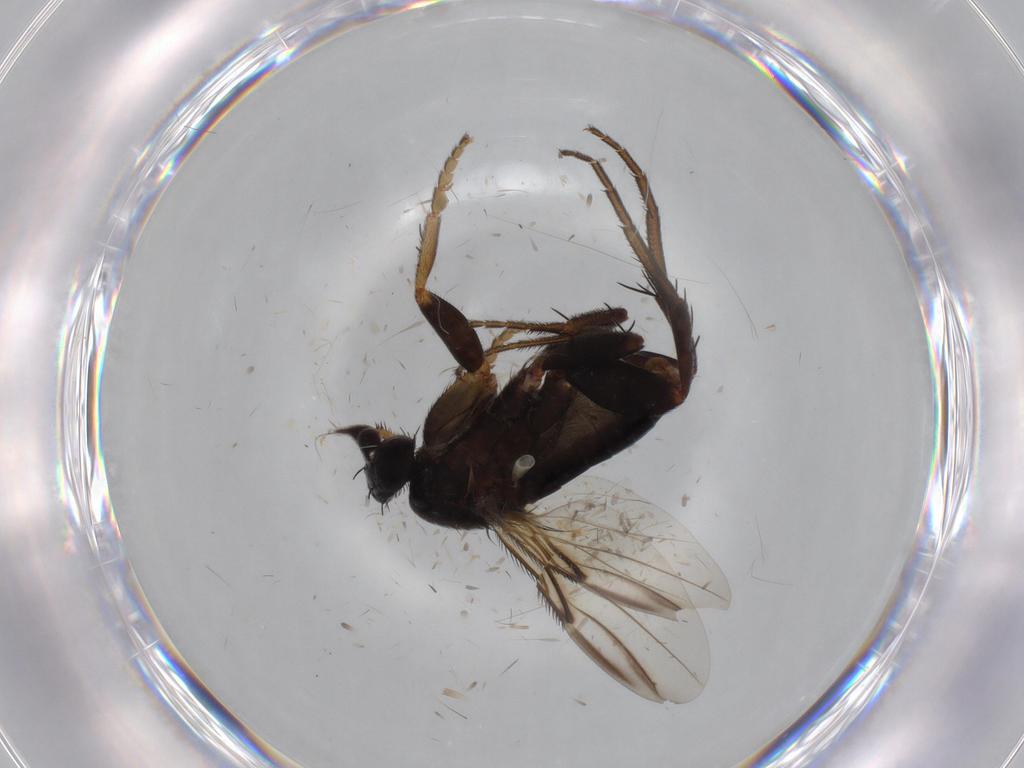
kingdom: Animalia
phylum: Arthropoda
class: Insecta
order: Diptera
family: Phoridae
